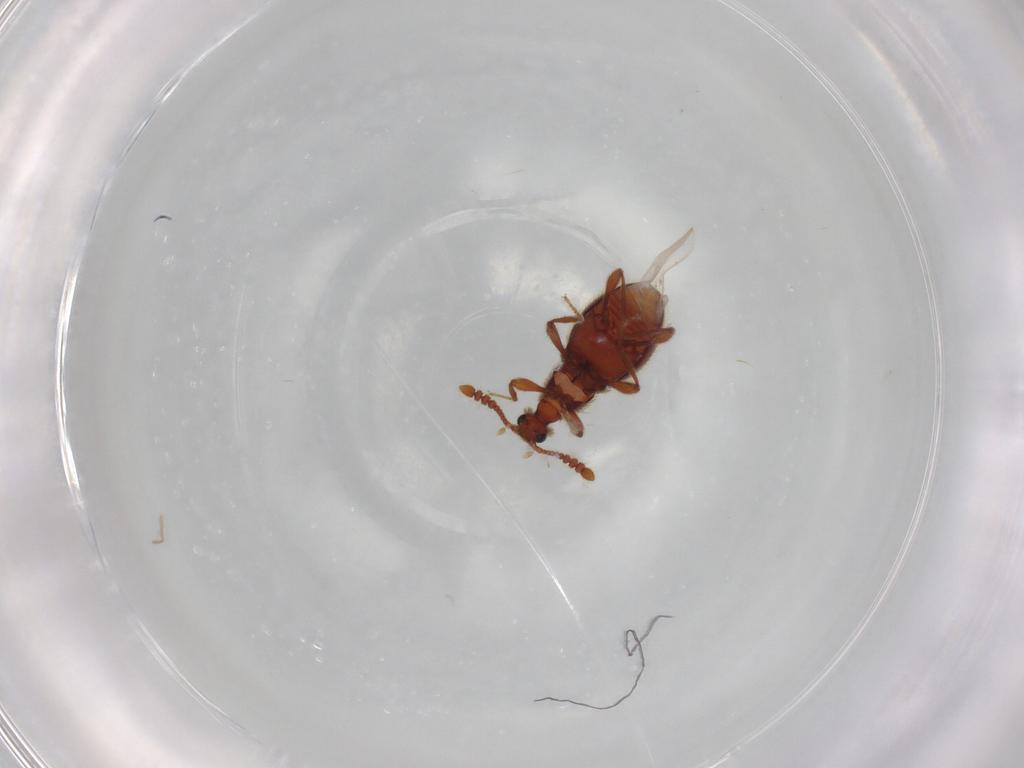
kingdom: Animalia
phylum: Arthropoda
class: Insecta
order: Coleoptera
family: Staphylinidae
